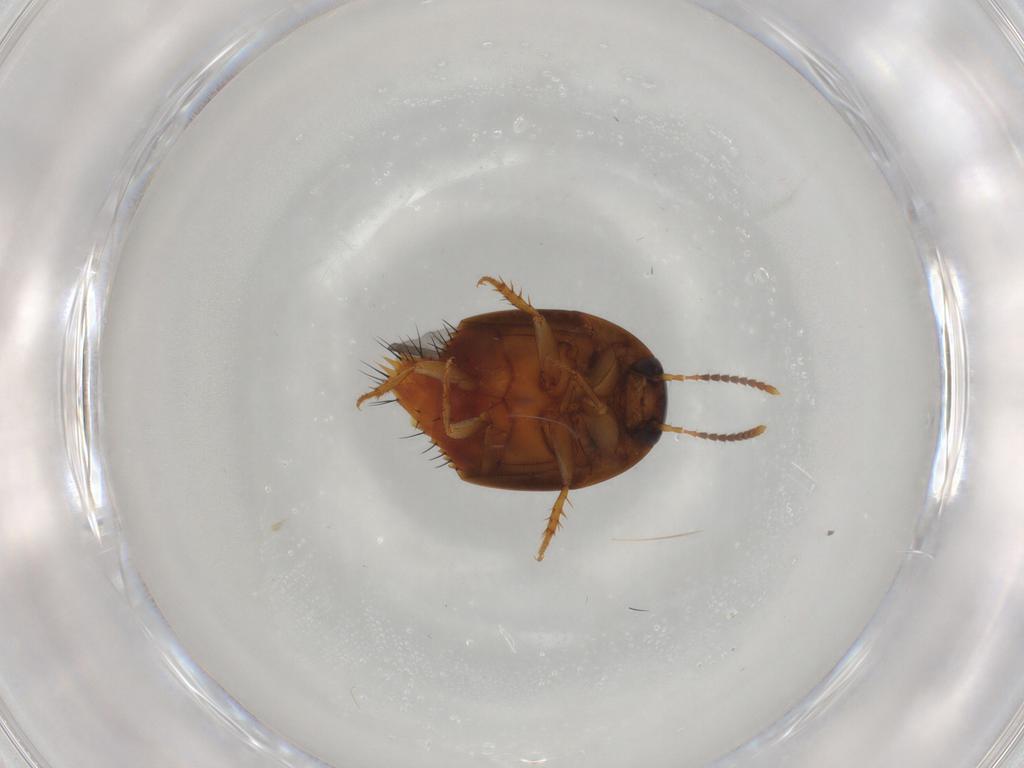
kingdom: Animalia
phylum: Arthropoda
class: Insecta
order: Coleoptera
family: Staphylinidae
